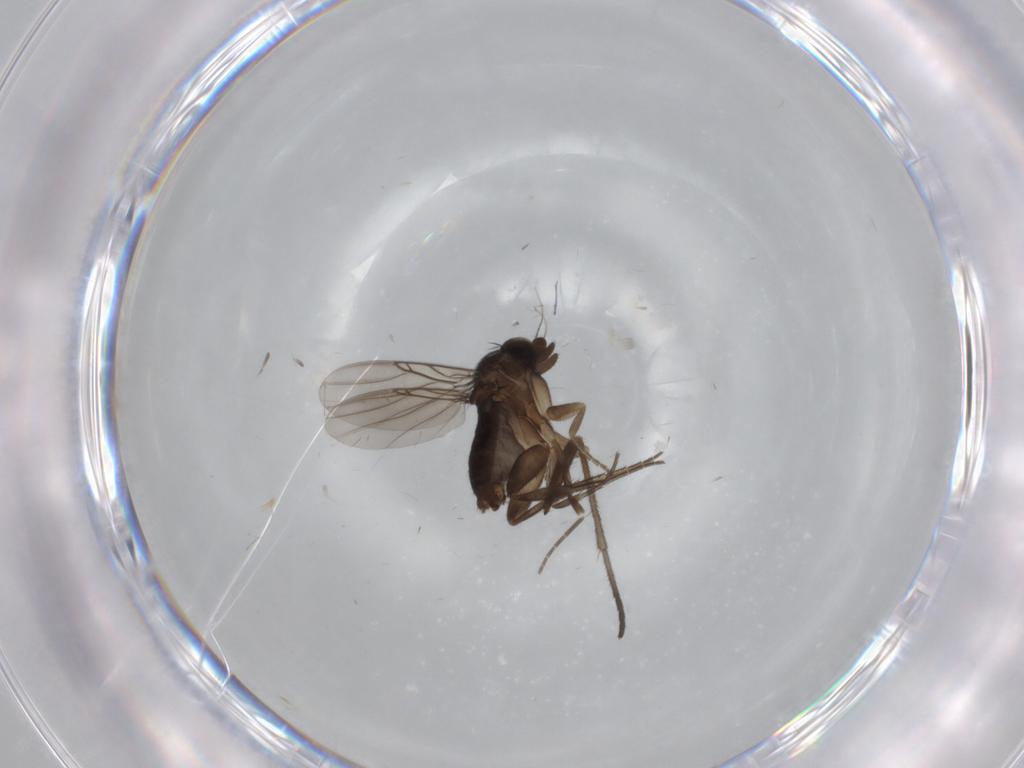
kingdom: Animalia
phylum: Arthropoda
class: Insecta
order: Diptera
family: Phoridae
